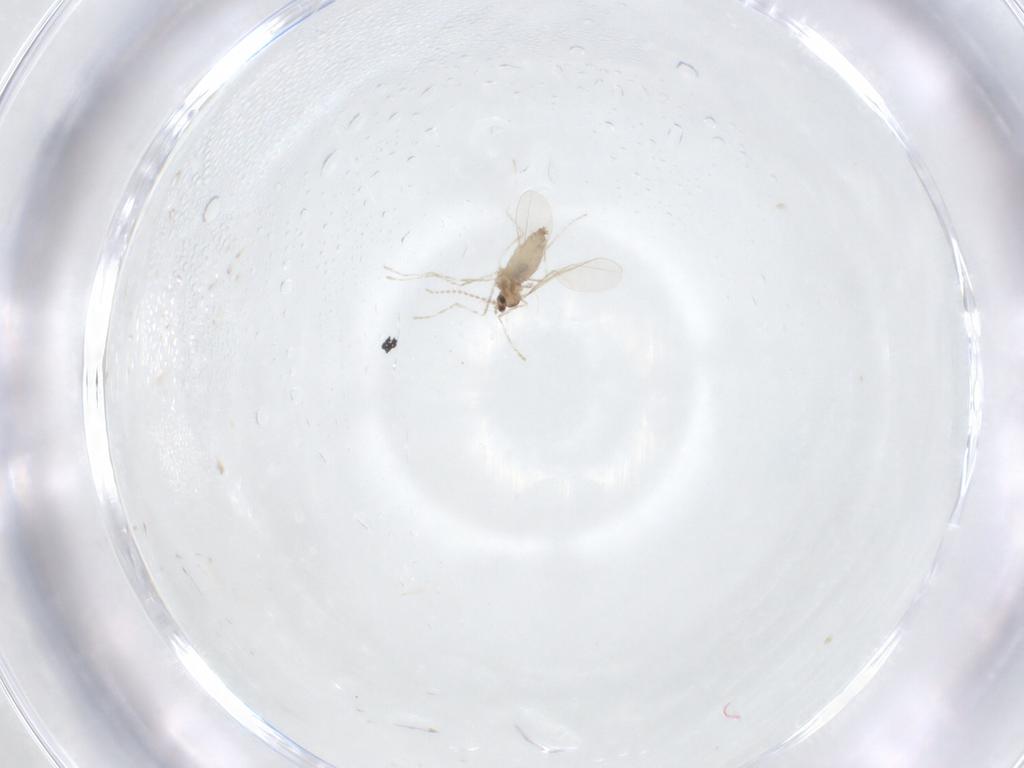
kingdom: Animalia
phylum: Arthropoda
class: Insecta
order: Diptera
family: Cecidomyiidae
